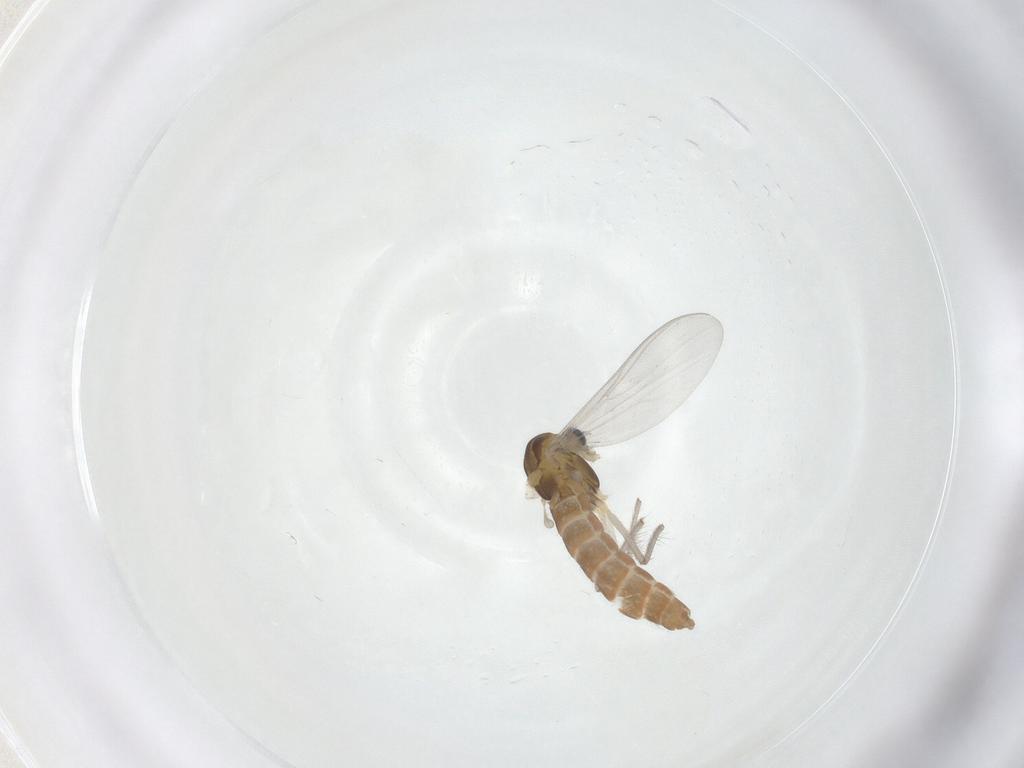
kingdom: Animalia
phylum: Arthropoda
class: Insecta
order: Diptera
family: Chironomidae
